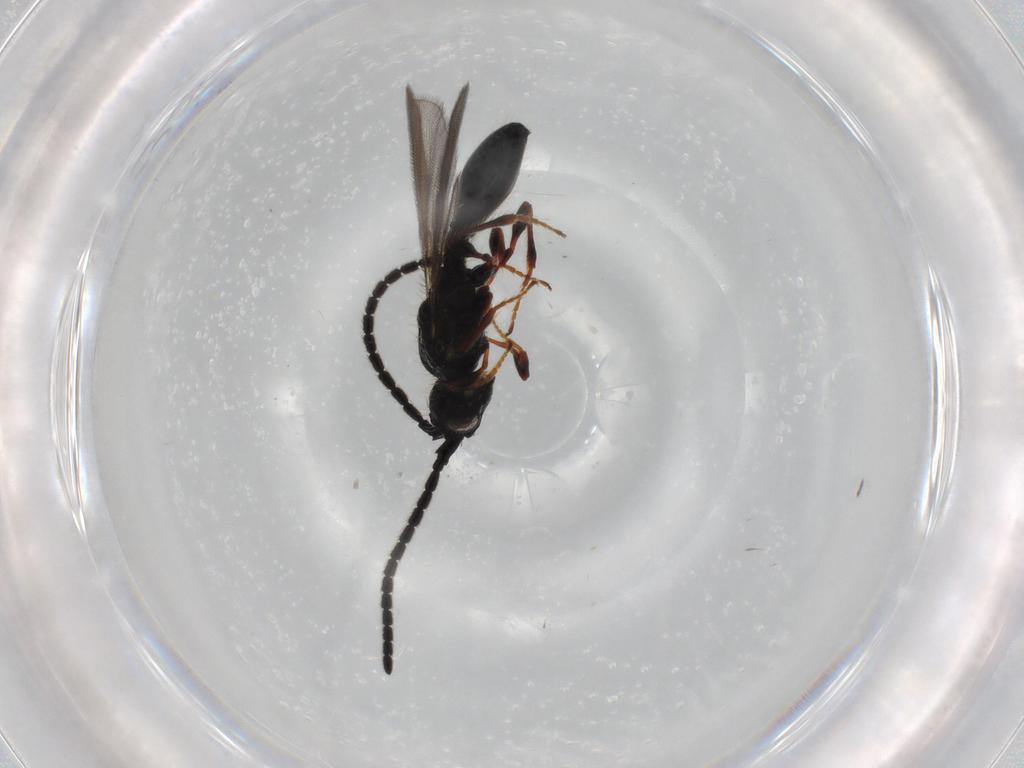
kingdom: Animalia
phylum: Arthropoda
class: Insecta
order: Hymenoptera
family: Diapriidae
